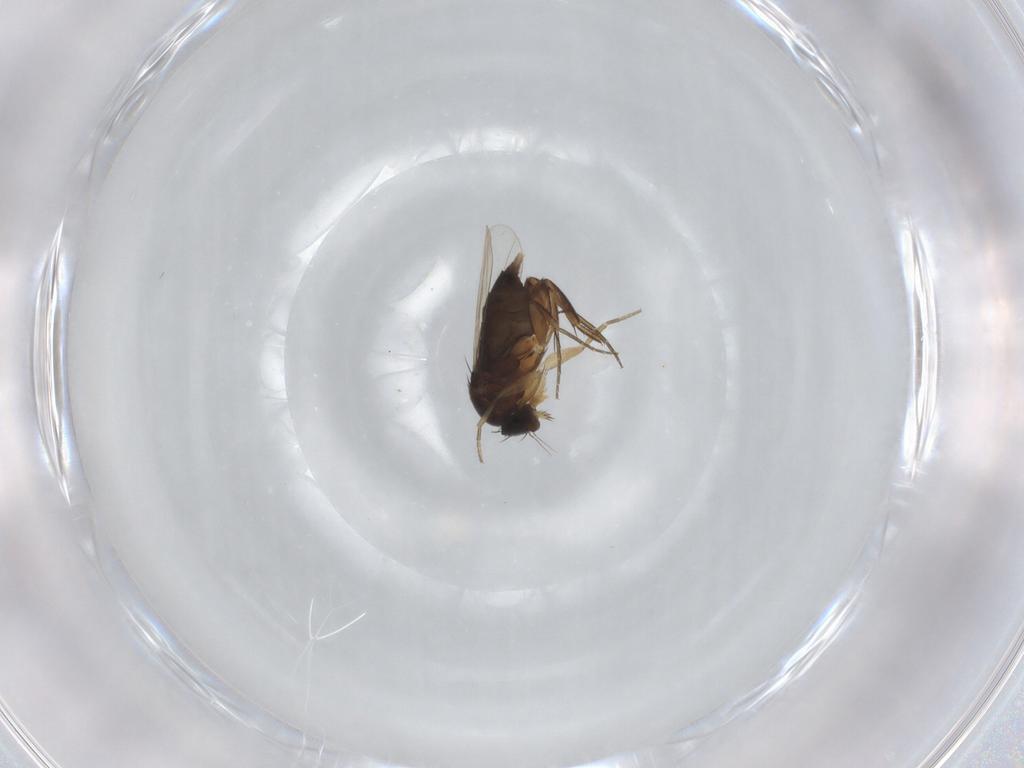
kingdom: Animalia
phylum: Arthropoda
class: Insecta
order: Diptera
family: Phoridae
